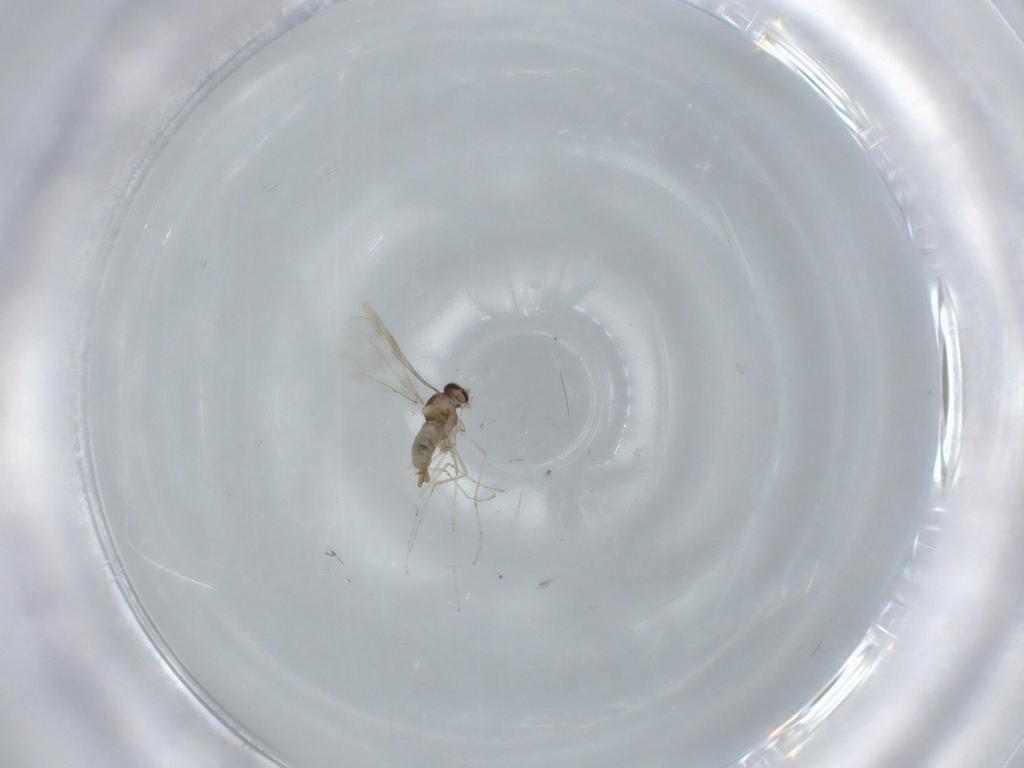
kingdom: Animalia
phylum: Arthropoda
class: Insecta
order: Diptera
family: Cecidomyiidae
